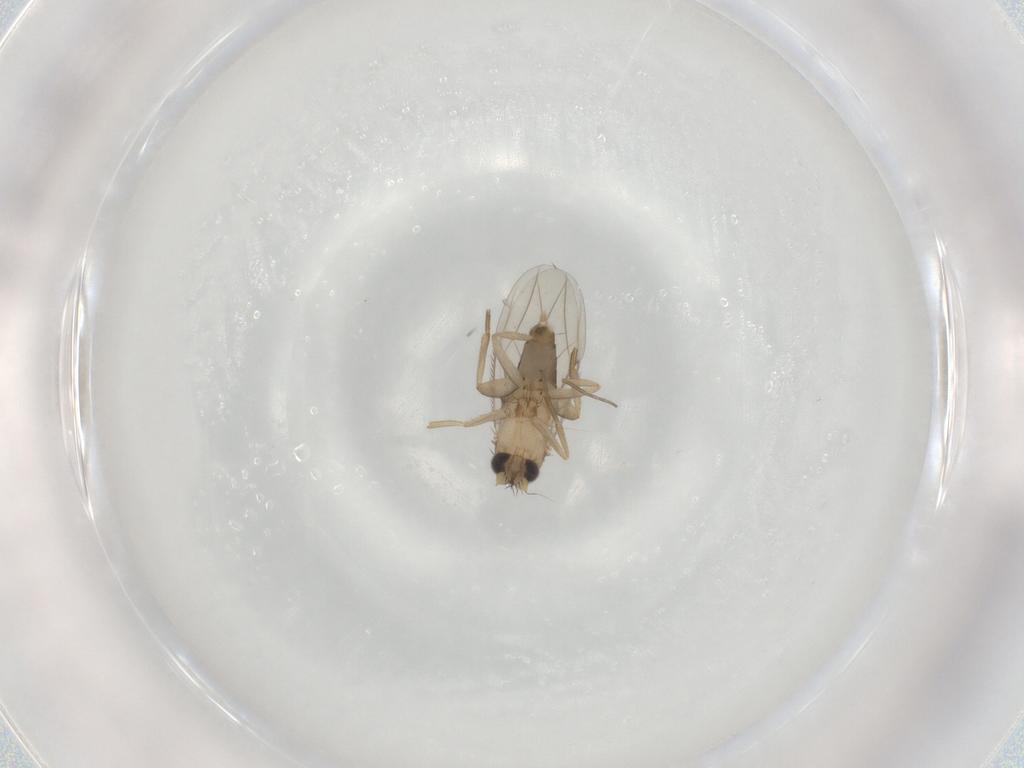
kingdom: Animalia
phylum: Arthropoda
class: Insecta
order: Diptera
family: Phoridae
